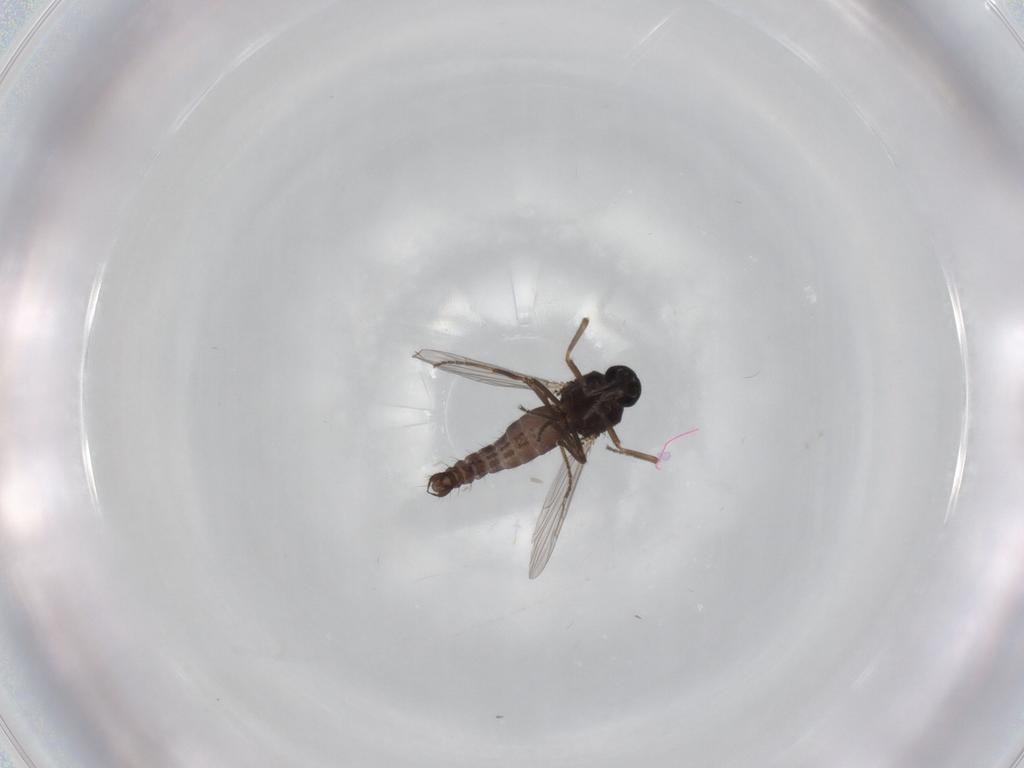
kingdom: Animalia
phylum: Arthropoda
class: Insecta
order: Diptera
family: Ceratopogonidae
